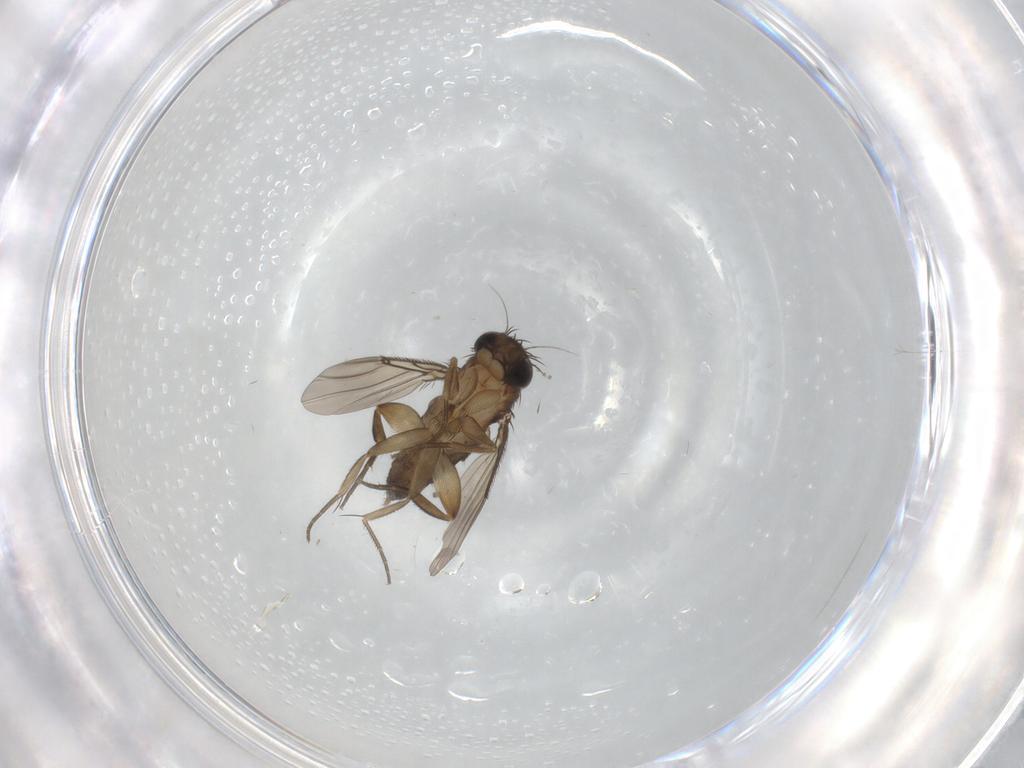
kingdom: Animalia
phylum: Arthropoda
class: Insecta
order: Diptera
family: Phoridae
